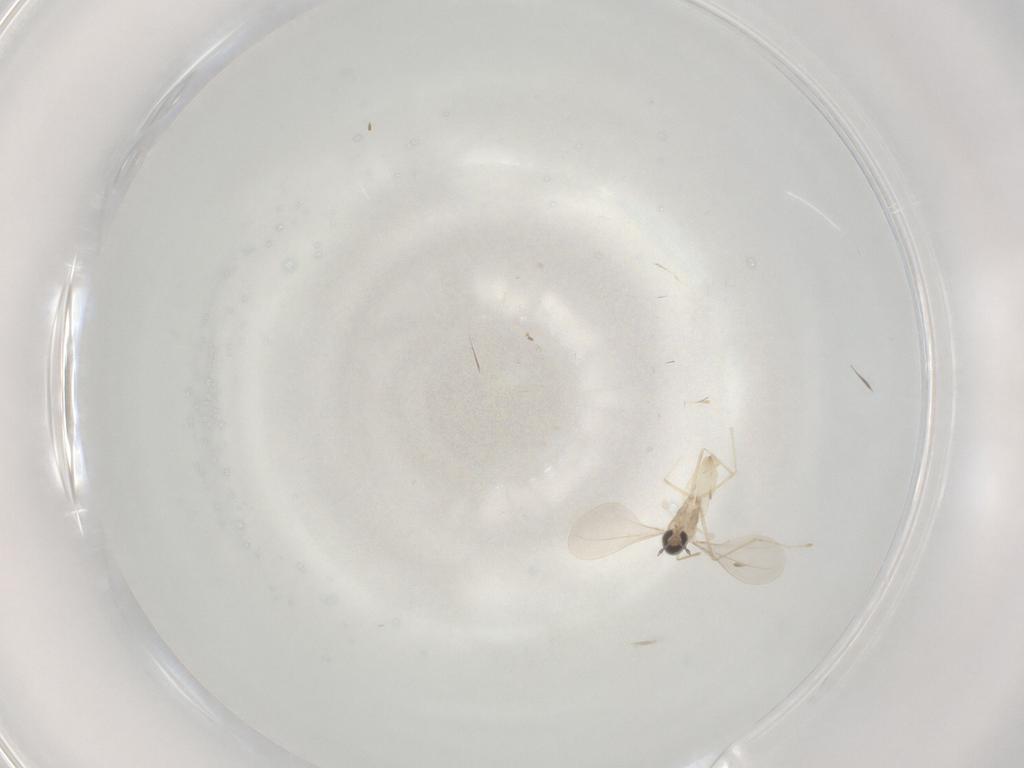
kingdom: Animalia
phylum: Arthropoda
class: Insecta
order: Diptera
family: Cecidomyiidae
